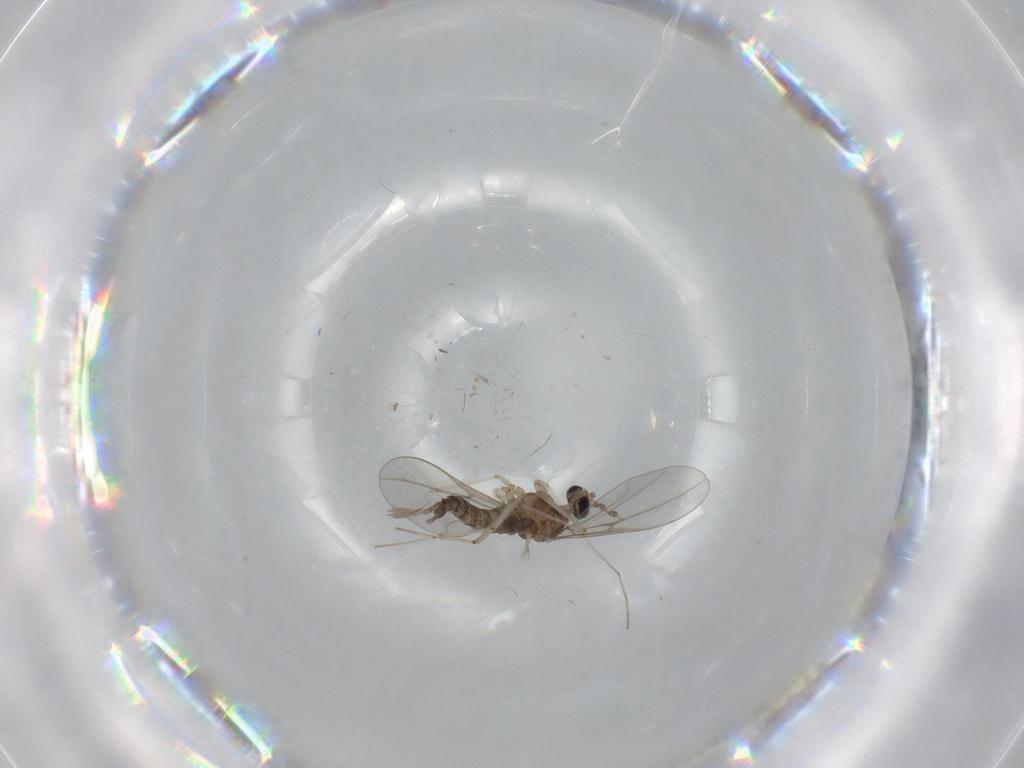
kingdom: Animalia
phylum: Arthropoda
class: Insecta
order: Diptera
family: Cecidomyiidae
